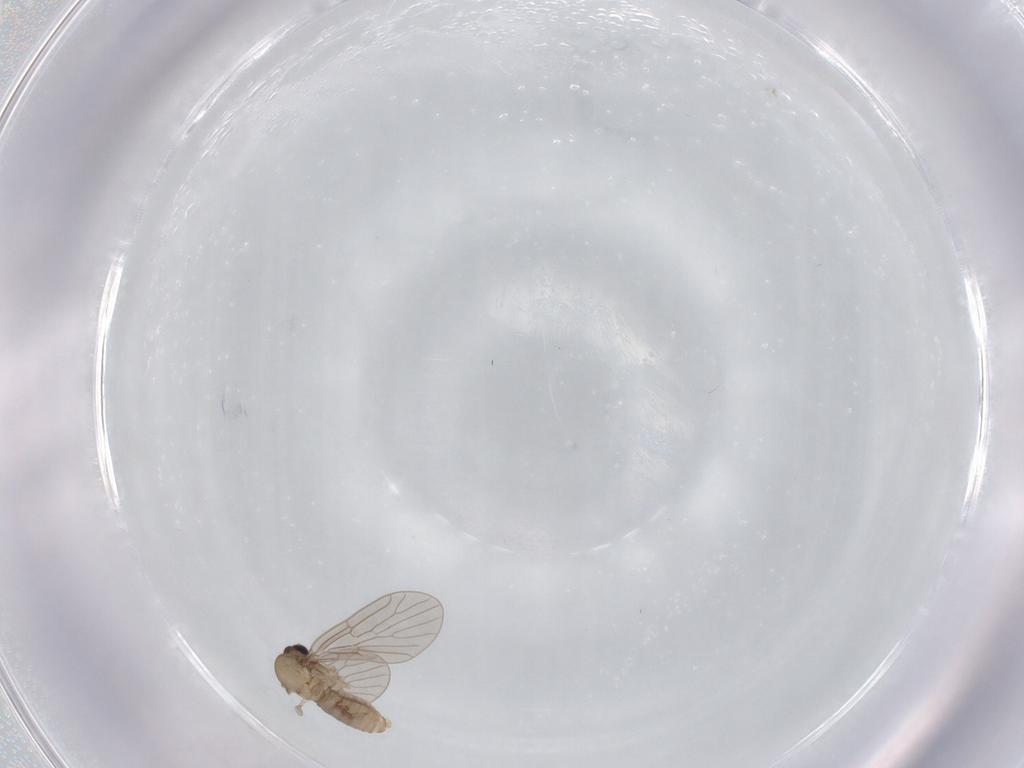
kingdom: Animalia
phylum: Arthropoda
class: Insecta
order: Diptera
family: Psychodidae
